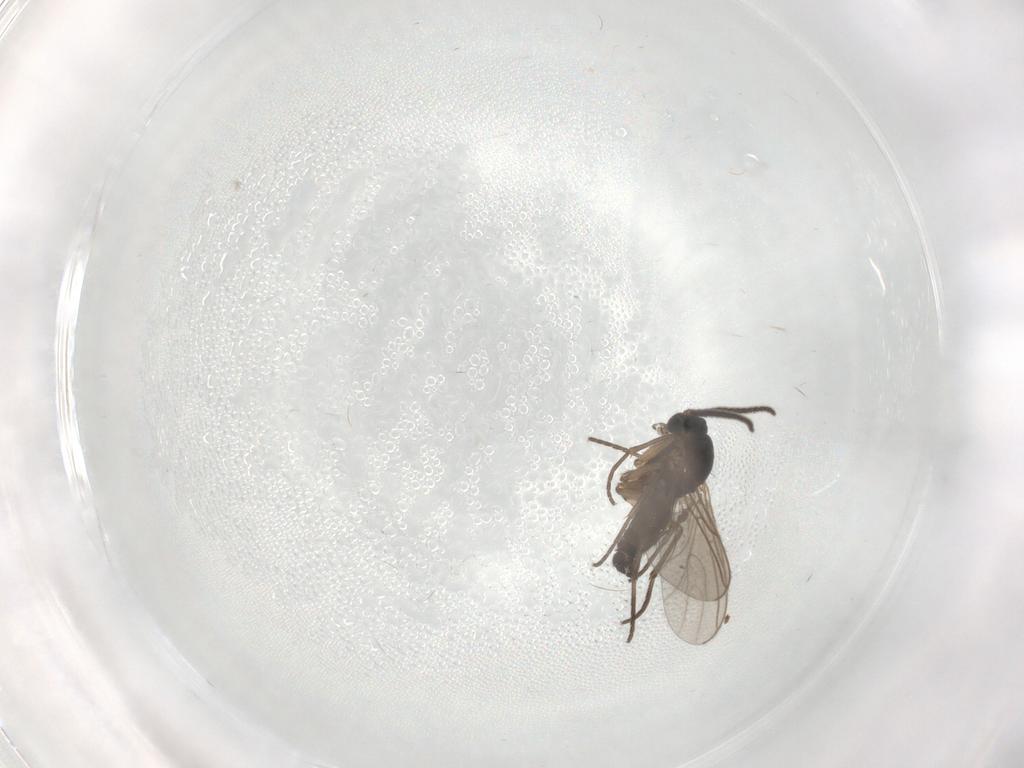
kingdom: Animalia
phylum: Arthropoda
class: Insecta
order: Diptera
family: Sciaridae
